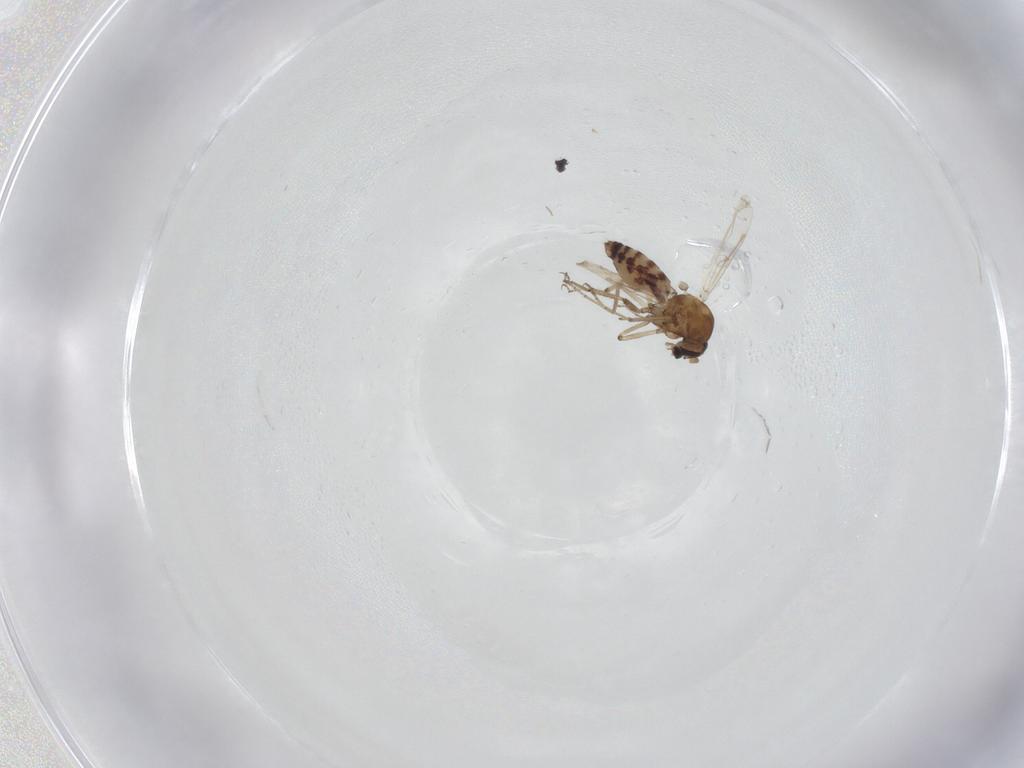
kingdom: Animalia
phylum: Arthropoda
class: Insecta
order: Diptera
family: Ceratopogonidae
